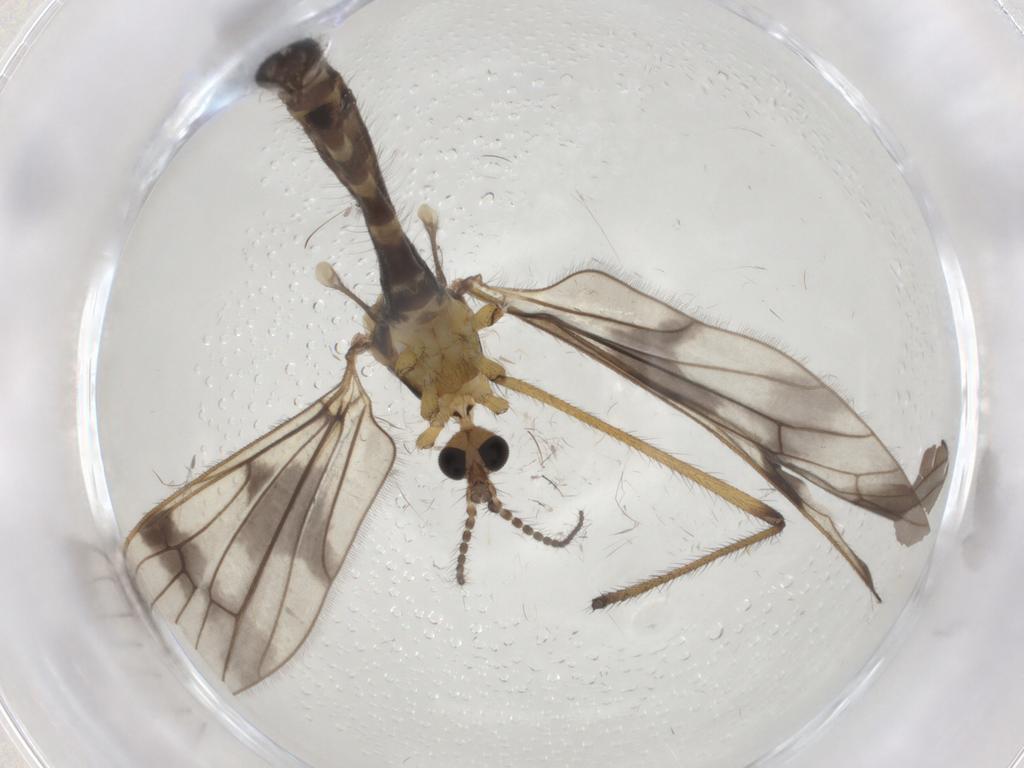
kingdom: Animalia
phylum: Arthropoda
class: Insecta
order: Diptera
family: Limoniidae
